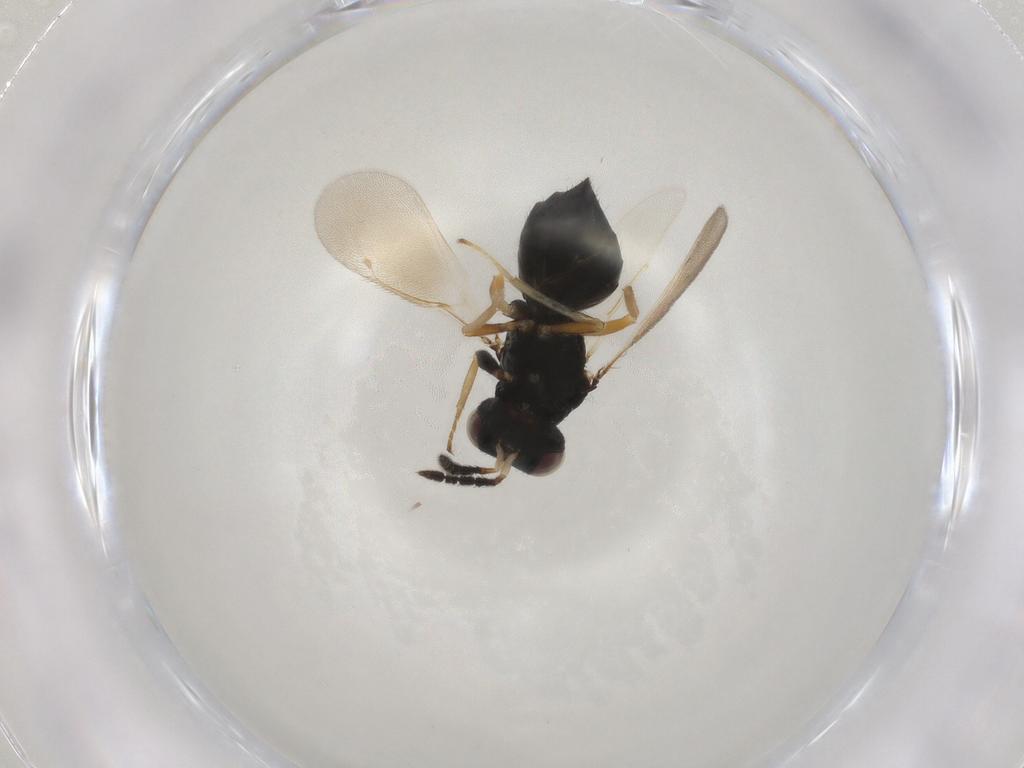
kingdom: Animalia
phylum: Arthropoda
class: Insecta
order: Hymenoptera
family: Eulophidae
